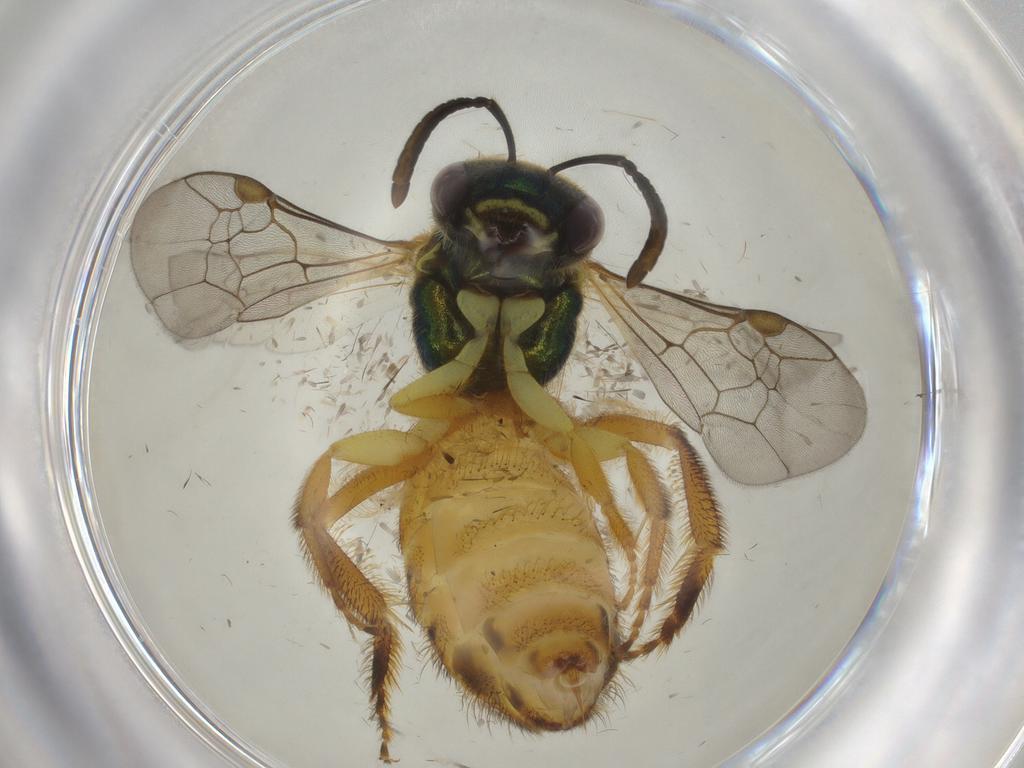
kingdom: Animalia
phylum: Arthropoda
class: Insecta
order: Hymenoptera
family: Halictidae
